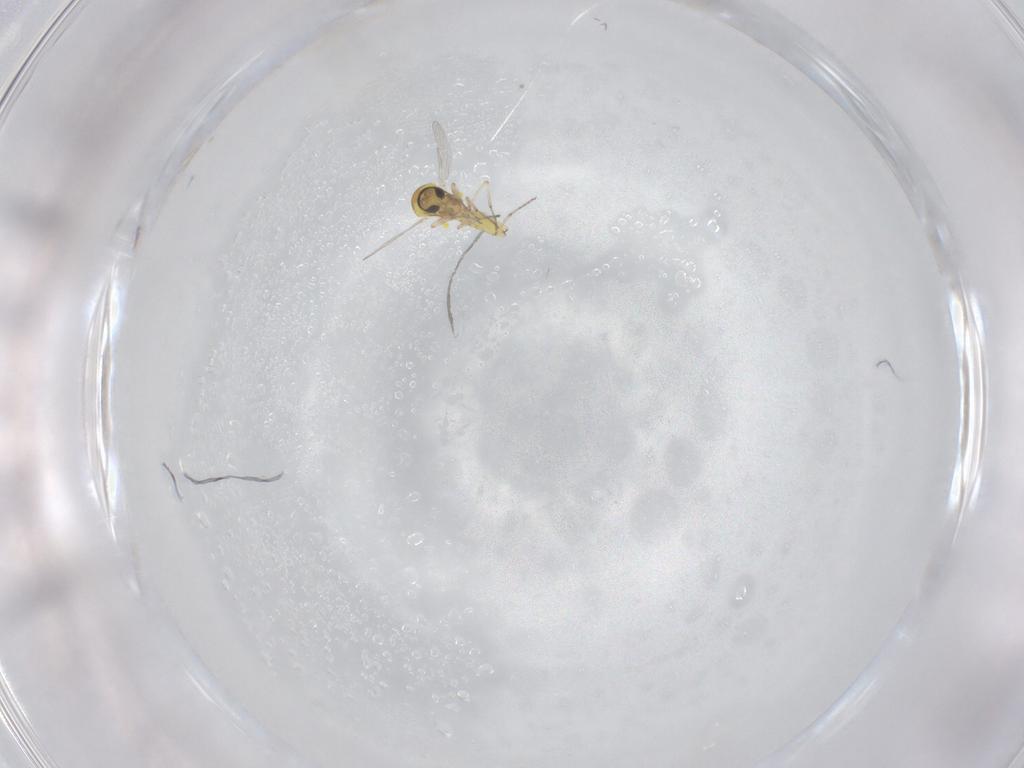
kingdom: Animalia
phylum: Arthropoda
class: Insecta
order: Diptera
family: Ceratopogonidae
